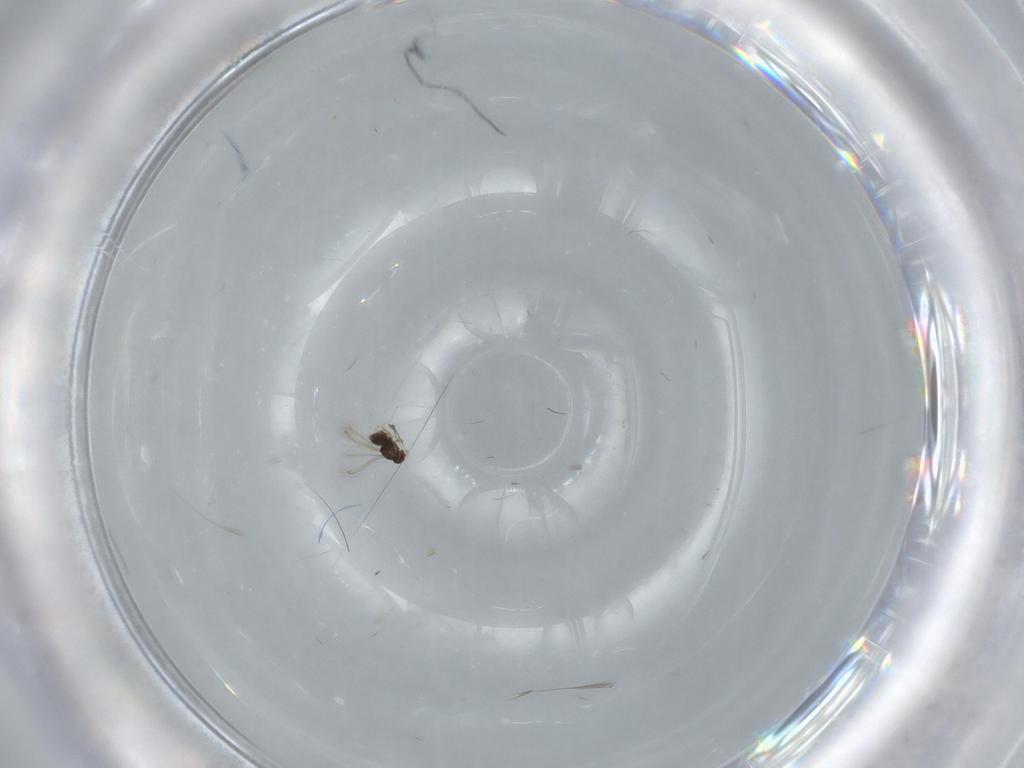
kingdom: Animalia
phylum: Arthropoda
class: Insecta
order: Hymenoptera
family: Mymaridae
